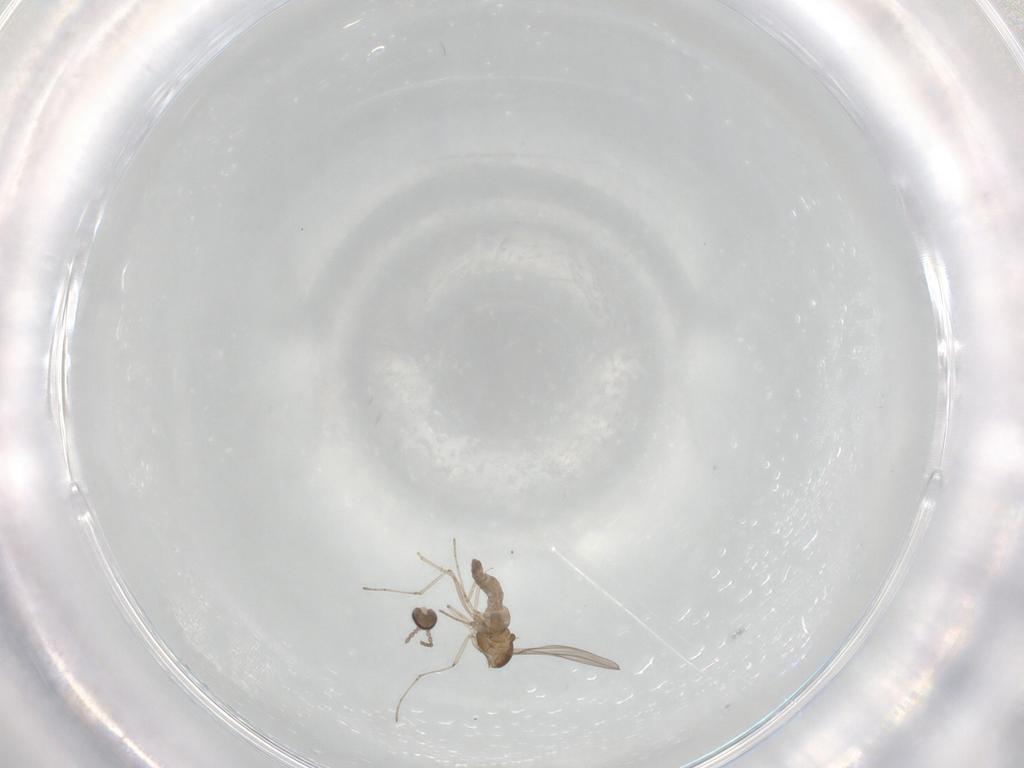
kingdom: Animalia
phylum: Arthropoda
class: Insecta
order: Diptera
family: Cecidomyiidae
